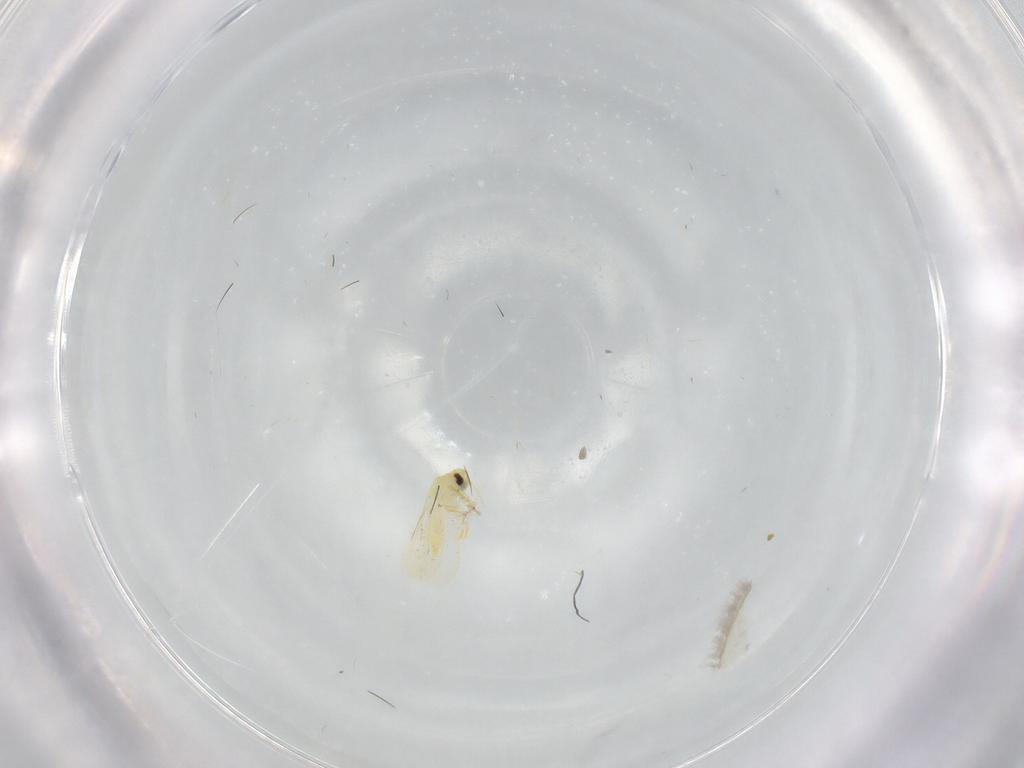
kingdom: Animalia
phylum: Arthropoda
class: Insecta
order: Hemiptera
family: Aleyrodidae
